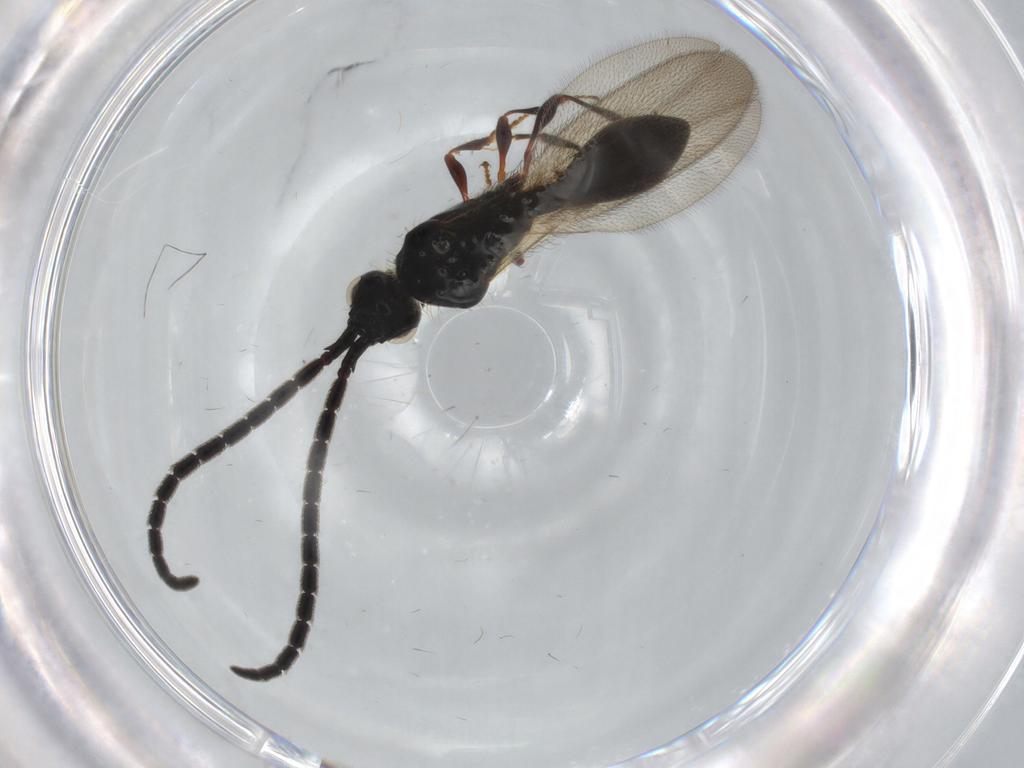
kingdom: Animalia
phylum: Arthropoda
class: Insecta
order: Hymenoptera
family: Diapriidae
